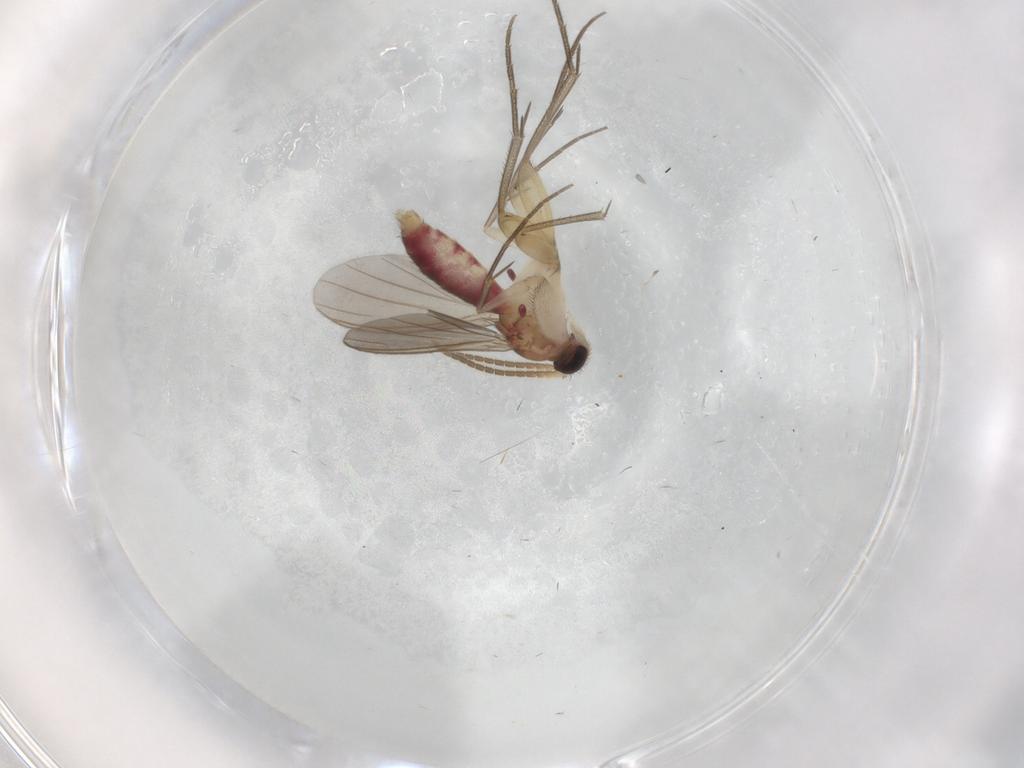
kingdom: Animalia
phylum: Arthropoda
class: Insecta
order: Diptera
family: Mycetophilidae
